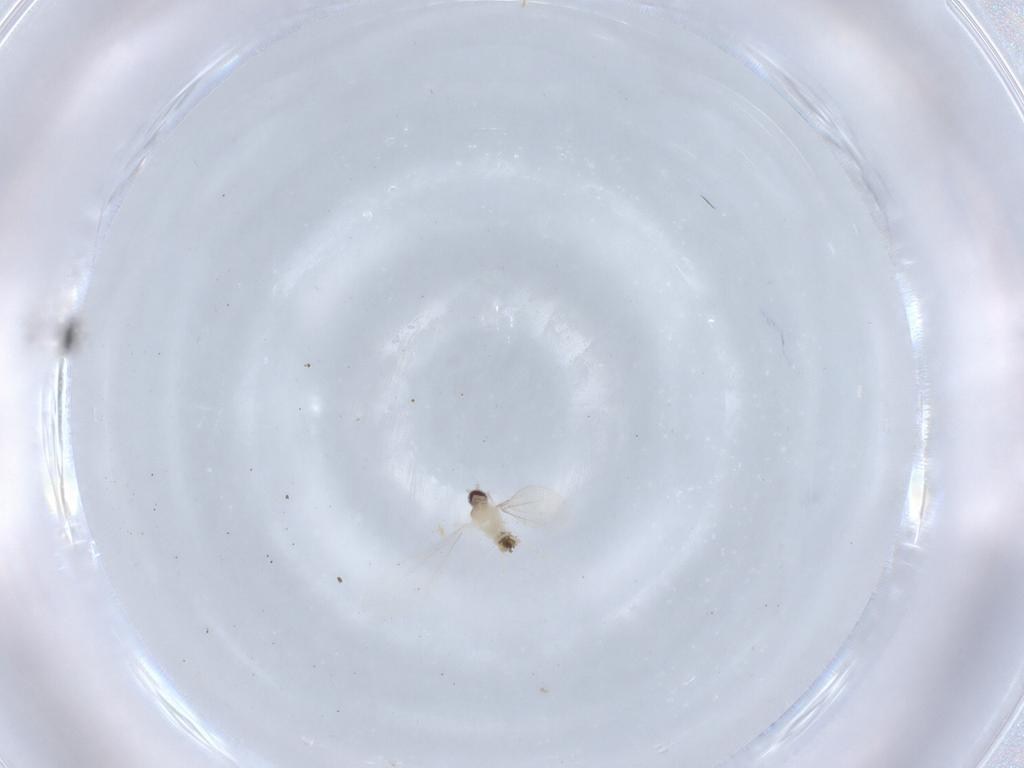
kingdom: Animalia
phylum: Arthropoda
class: Insecta
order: Diptera
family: Cecidomyiidae
